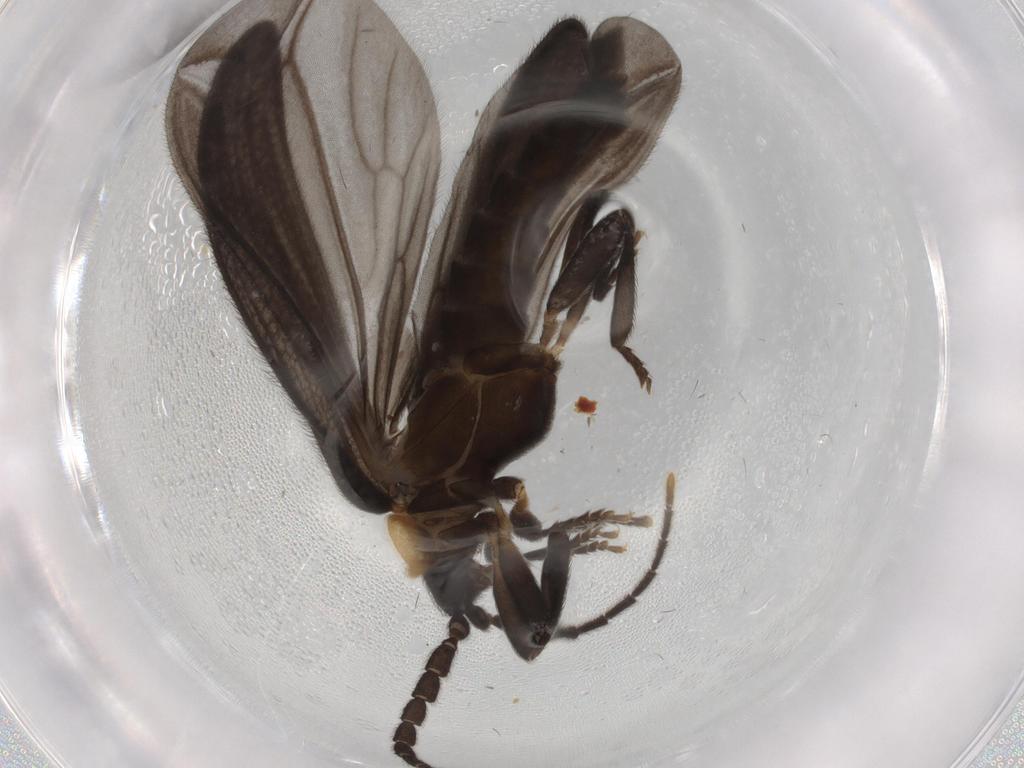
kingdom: Animalia
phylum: Arthropoda
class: Insecta
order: Coleoptera
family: Lycidae
